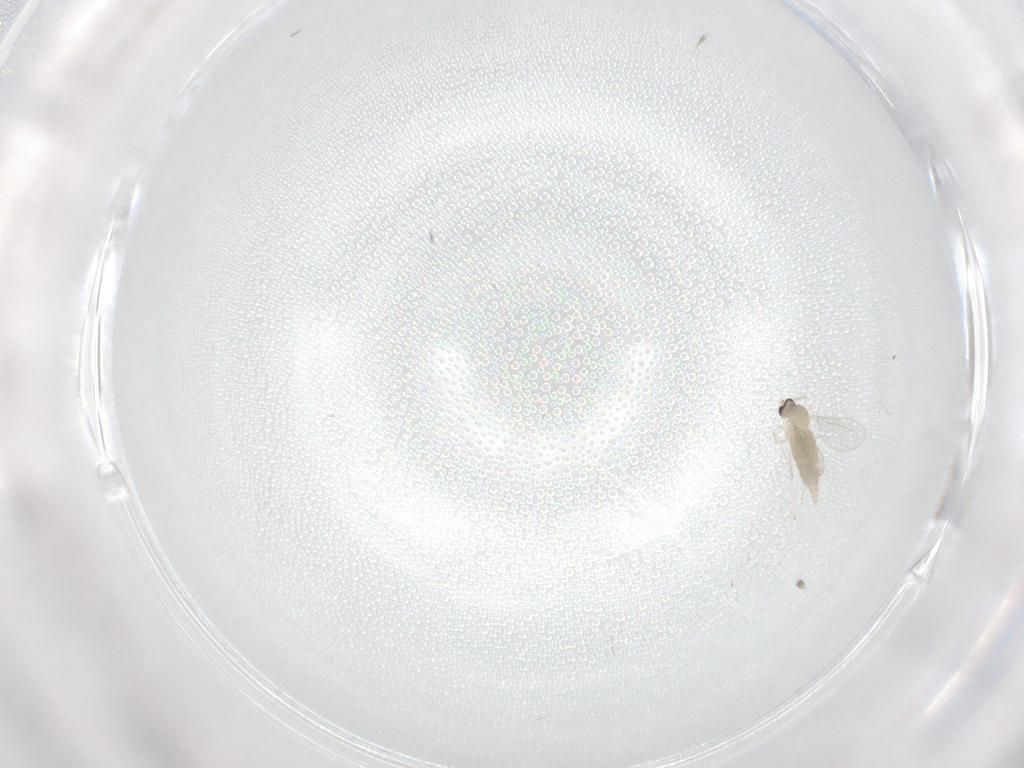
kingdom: Animalia
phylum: Arthropoda
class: Insecta
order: Diptera
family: Cecidomyiidae
